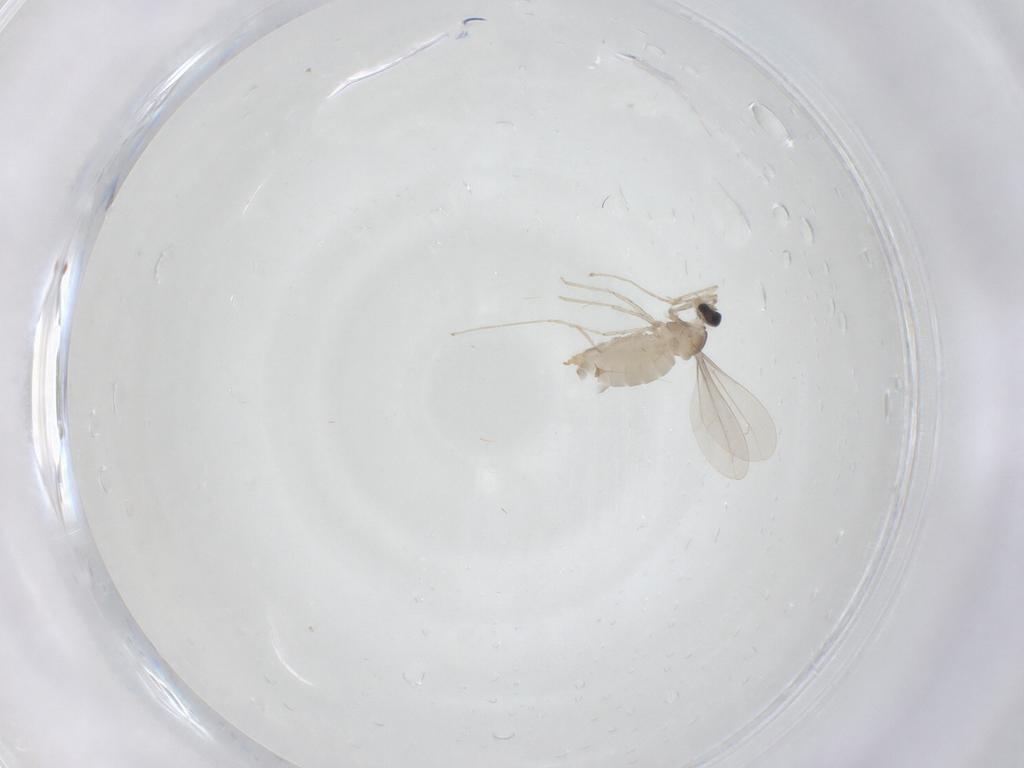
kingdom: Animalia
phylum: Arthropoda
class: Insecta
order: Diptera
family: Cecidomyiidae
